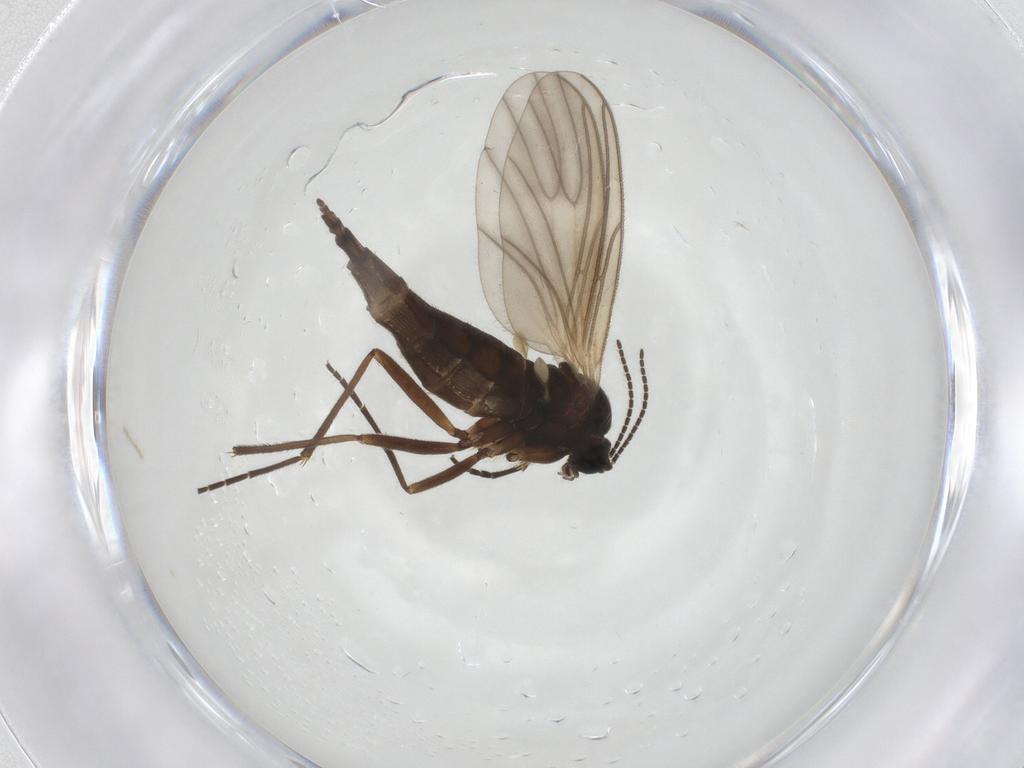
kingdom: Animalia
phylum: Arthropoda
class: Insecta
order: Diptera
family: Sciaridae
